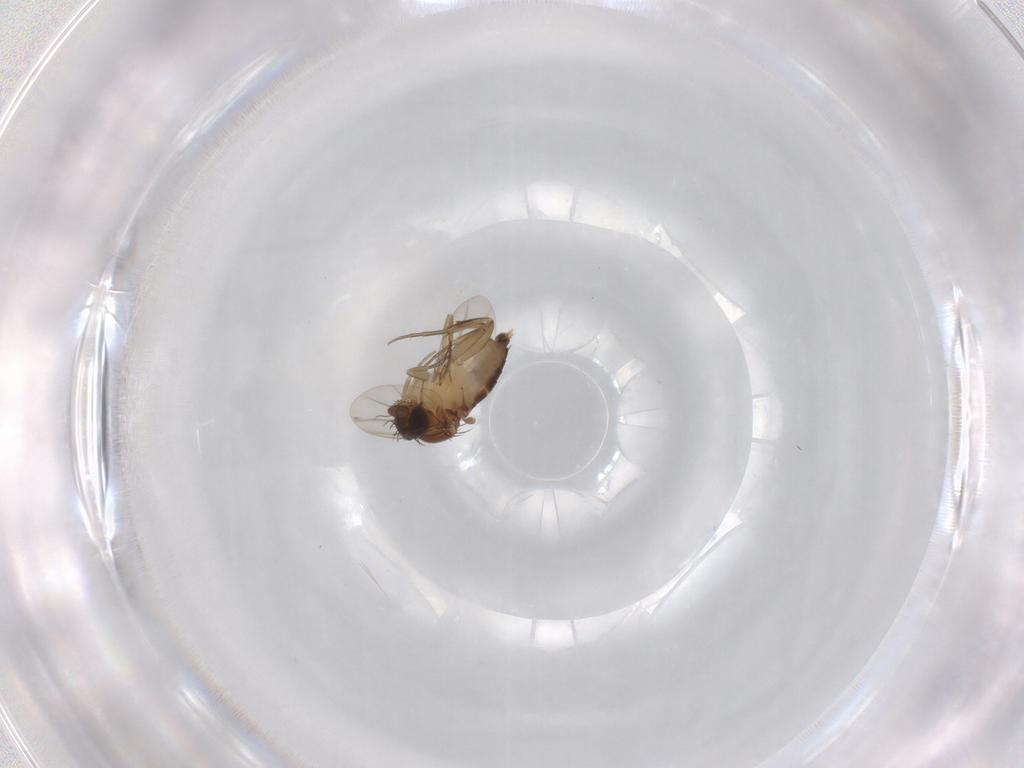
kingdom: Animalia
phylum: Arthropoda
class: Insecta
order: Diptera
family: Phoridae
